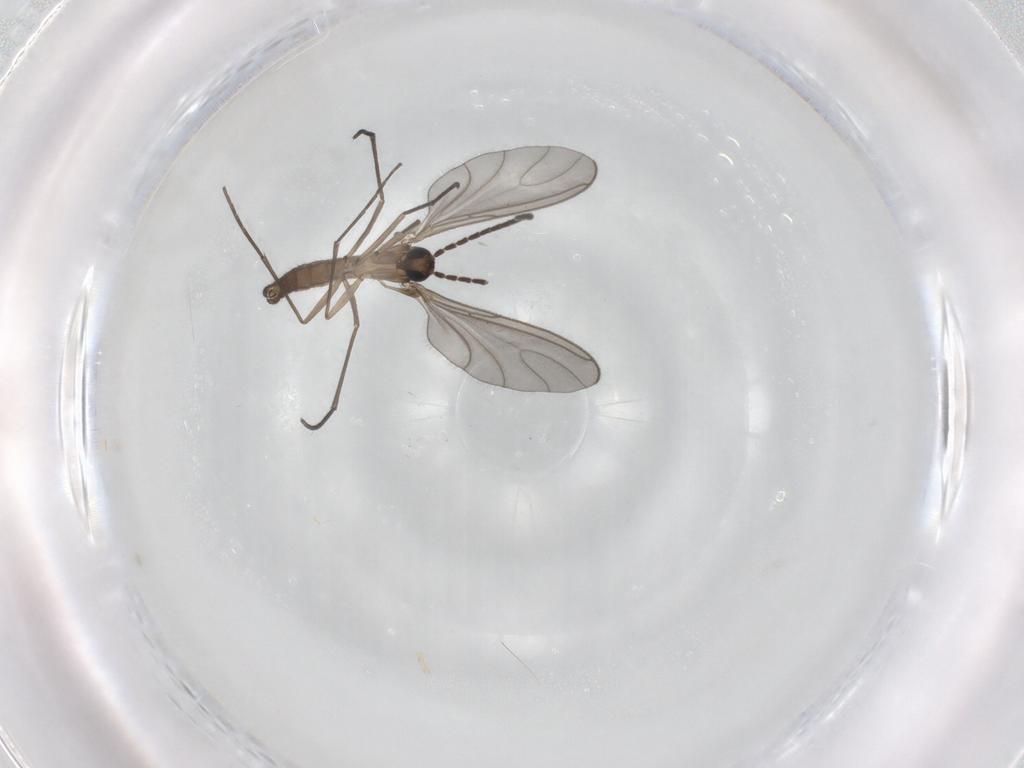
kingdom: Animalia
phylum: Arthropoda
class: Insecta
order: Diptera
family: Sciaridae
